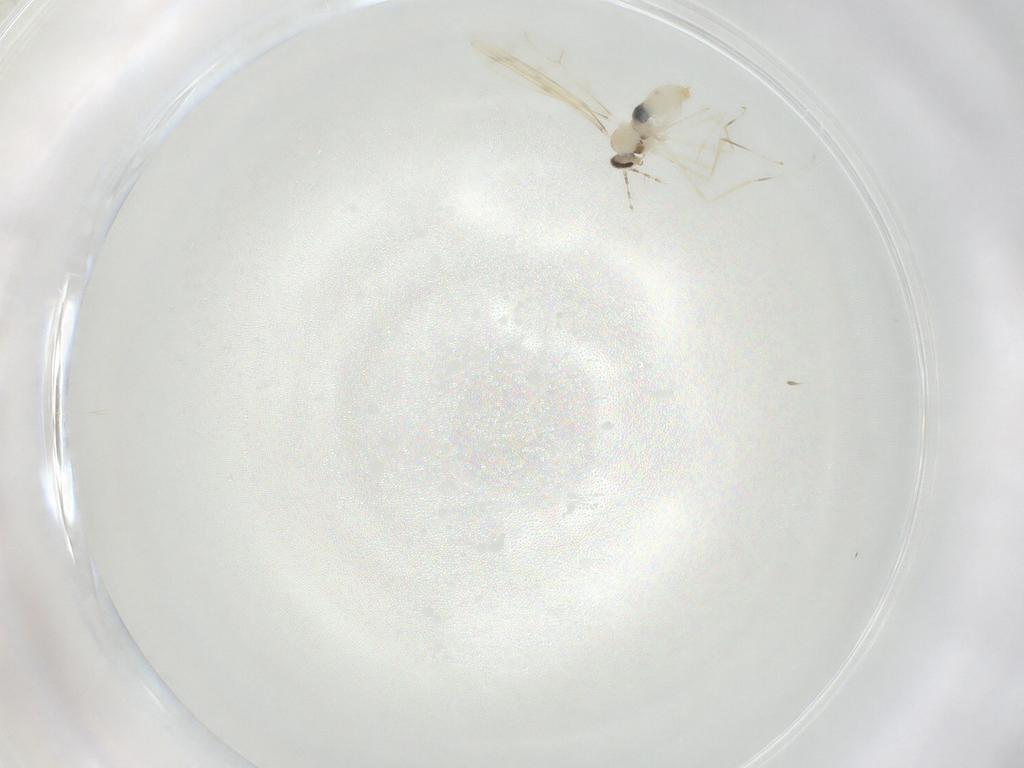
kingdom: Animalia
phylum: Arthropoda
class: Insecta
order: Diptera
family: Cecidomyiidae
